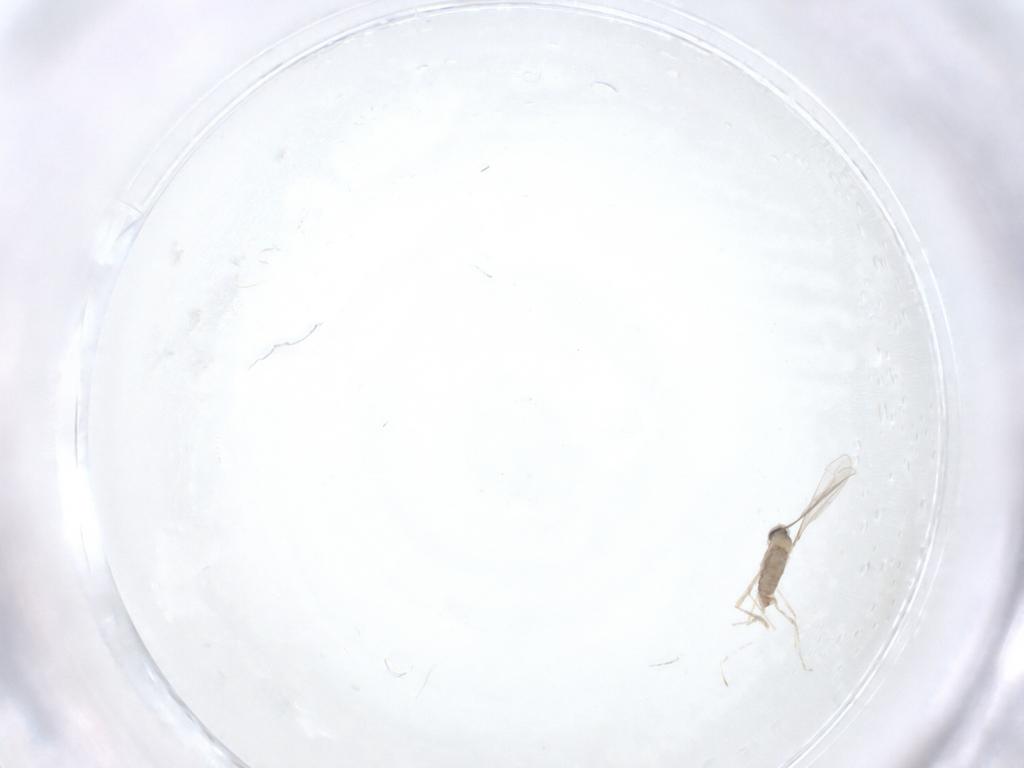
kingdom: Animalia
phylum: Arthropoda
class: Insecta
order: Diptera
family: Cecidomyiidae
